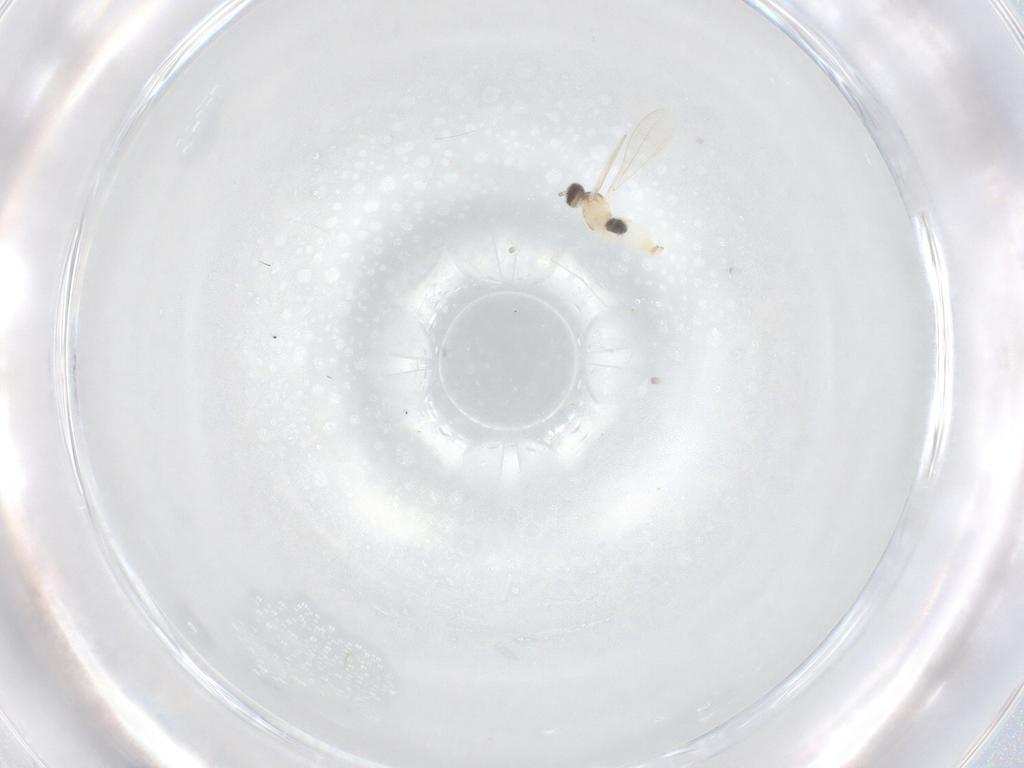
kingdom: Animalia
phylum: Arthropoda
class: Insecta
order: Diptera
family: Cecidomyiidae
